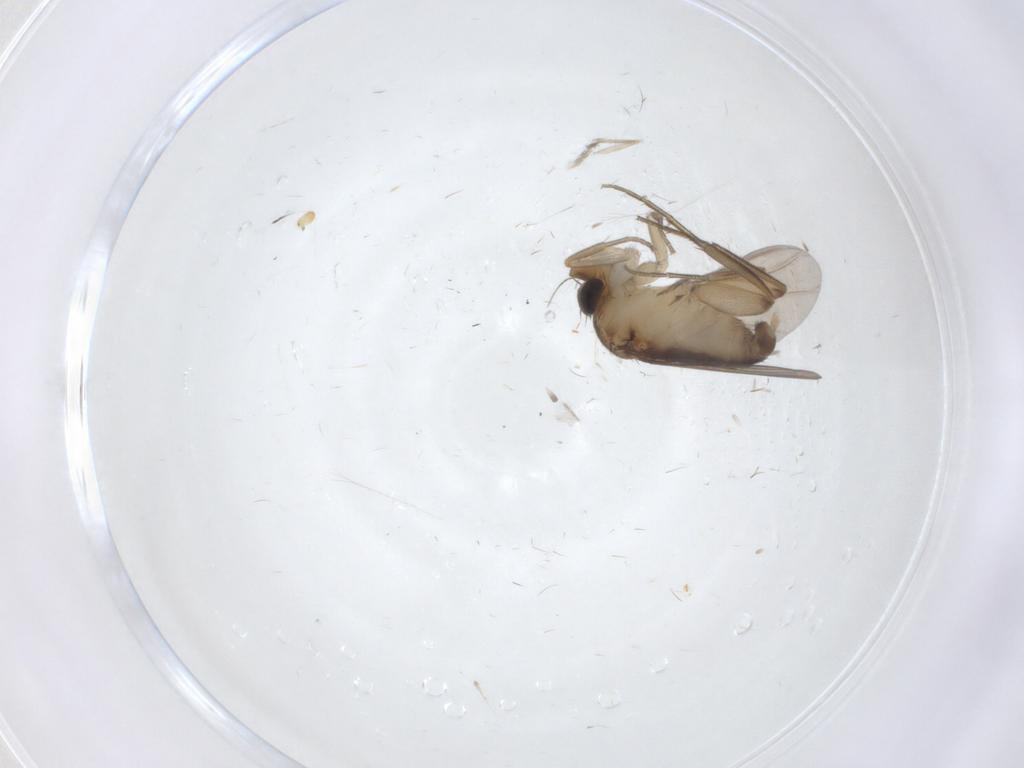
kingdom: Animalia
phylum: Arthropoda
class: Insecta
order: Diptera
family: Phoridae
